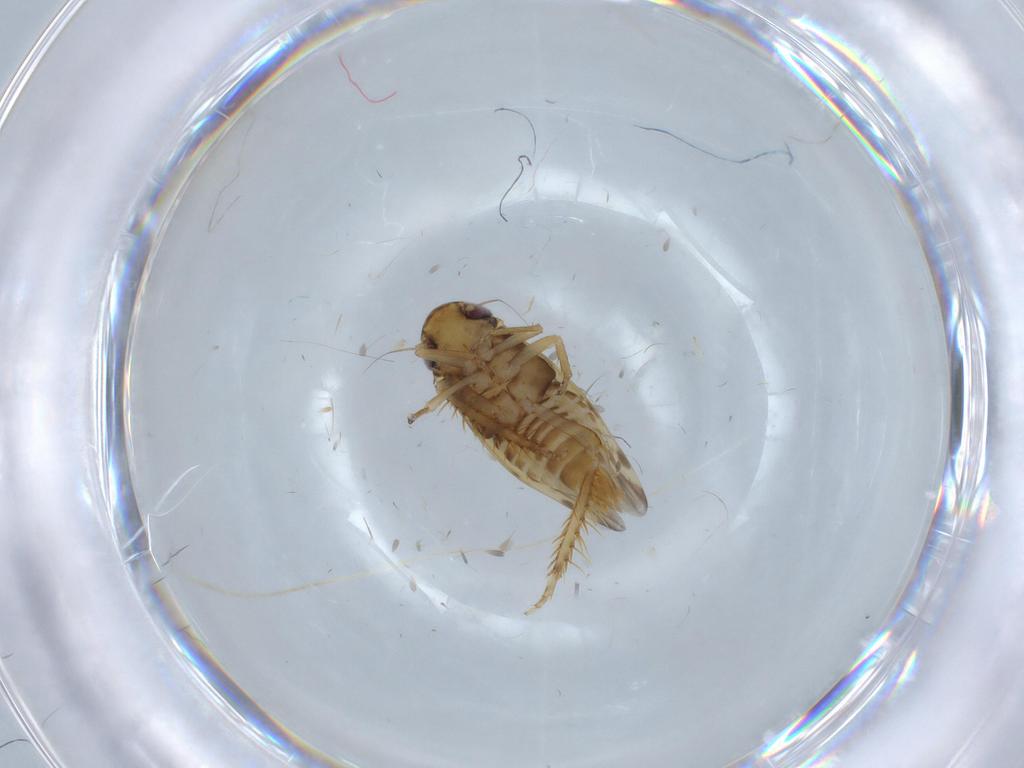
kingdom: Animalia
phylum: Arthropoda
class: Insecta
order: Hemiptera
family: Cicadellidae
